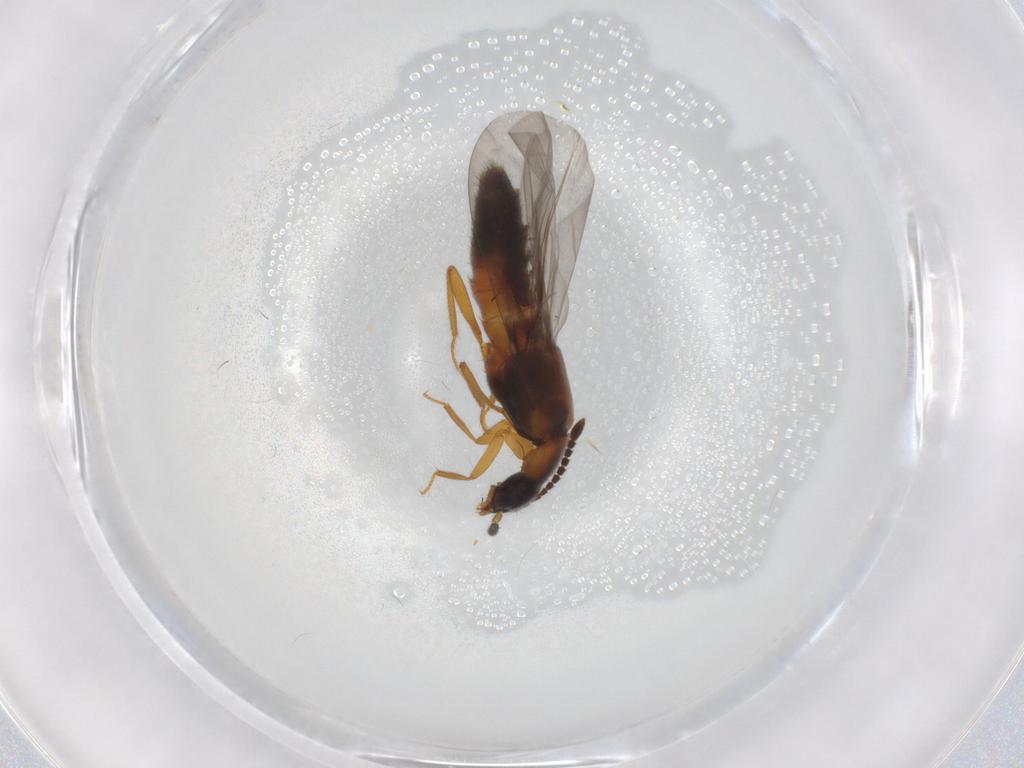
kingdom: Animalia
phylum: Arthropoda
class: Insecta
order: Coleoptera
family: Staphylinidae
